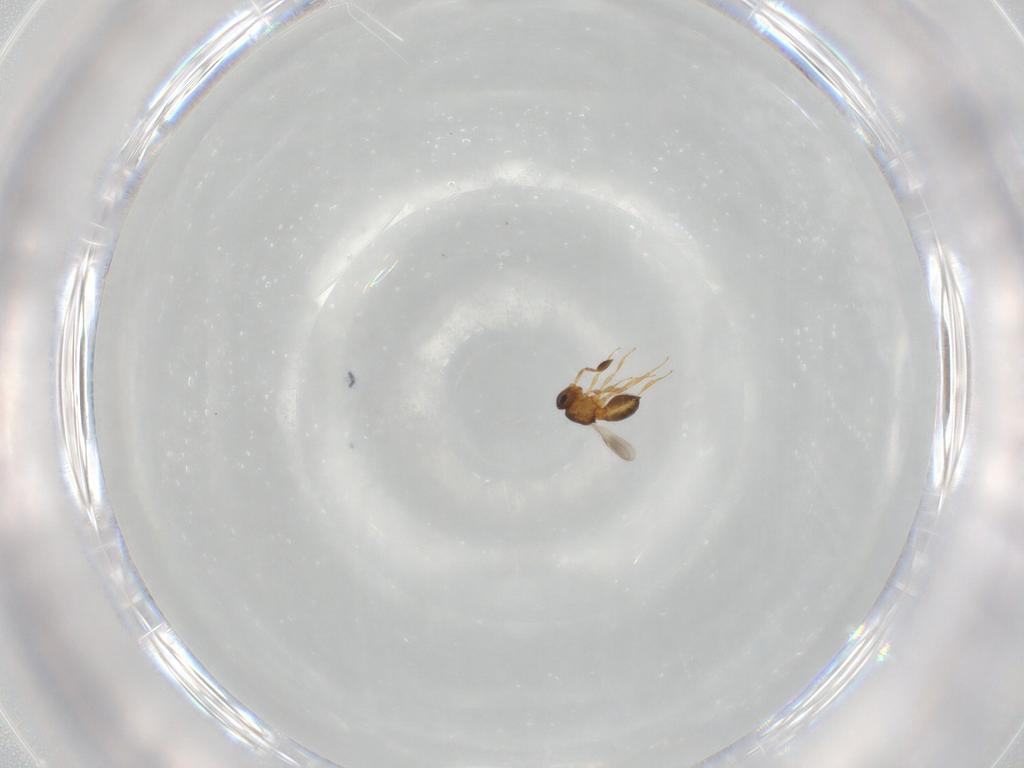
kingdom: Animalia
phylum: Arthropoda
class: Insecta
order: Hymenoptera
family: Scelionidae
